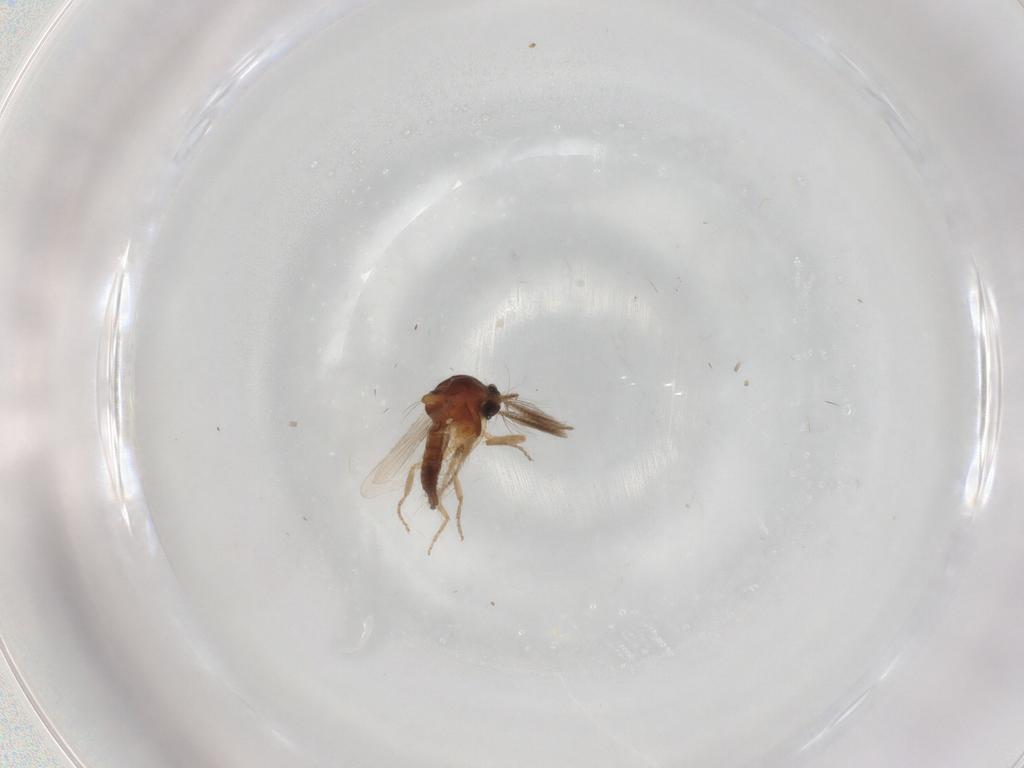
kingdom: Animalia
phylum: Arthropoda
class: Insecta
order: Diptera
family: Ceratopogonidae
